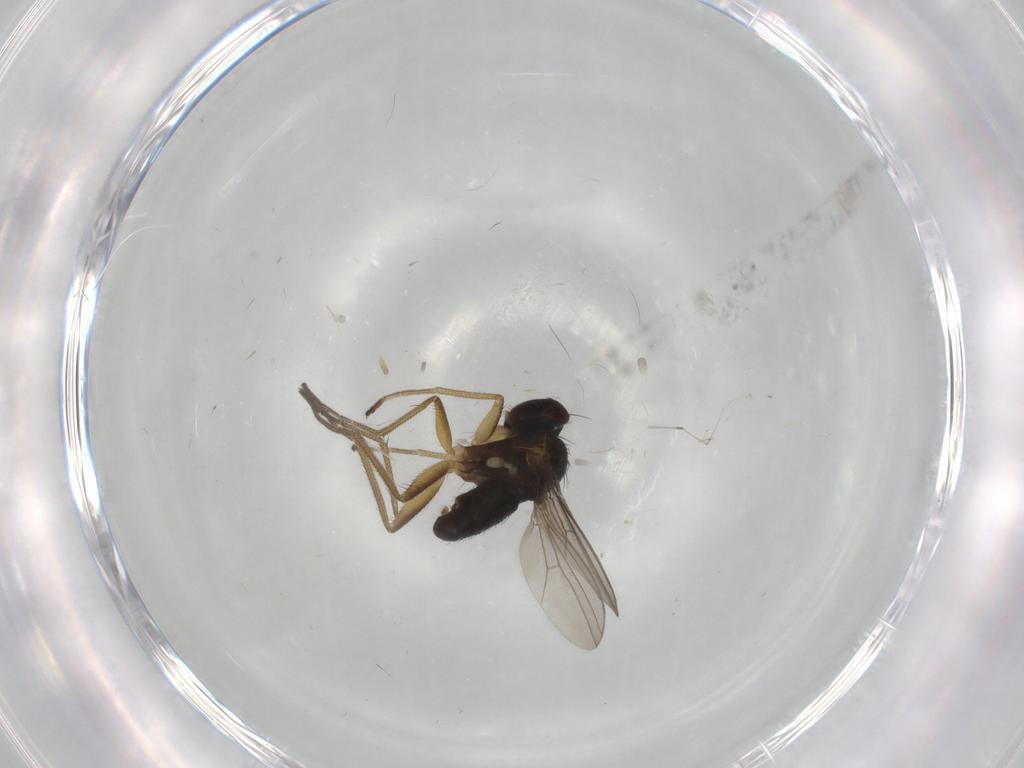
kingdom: Animalia
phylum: Arthropoda
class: Insecta
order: Diptera
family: Dolichopodidae
